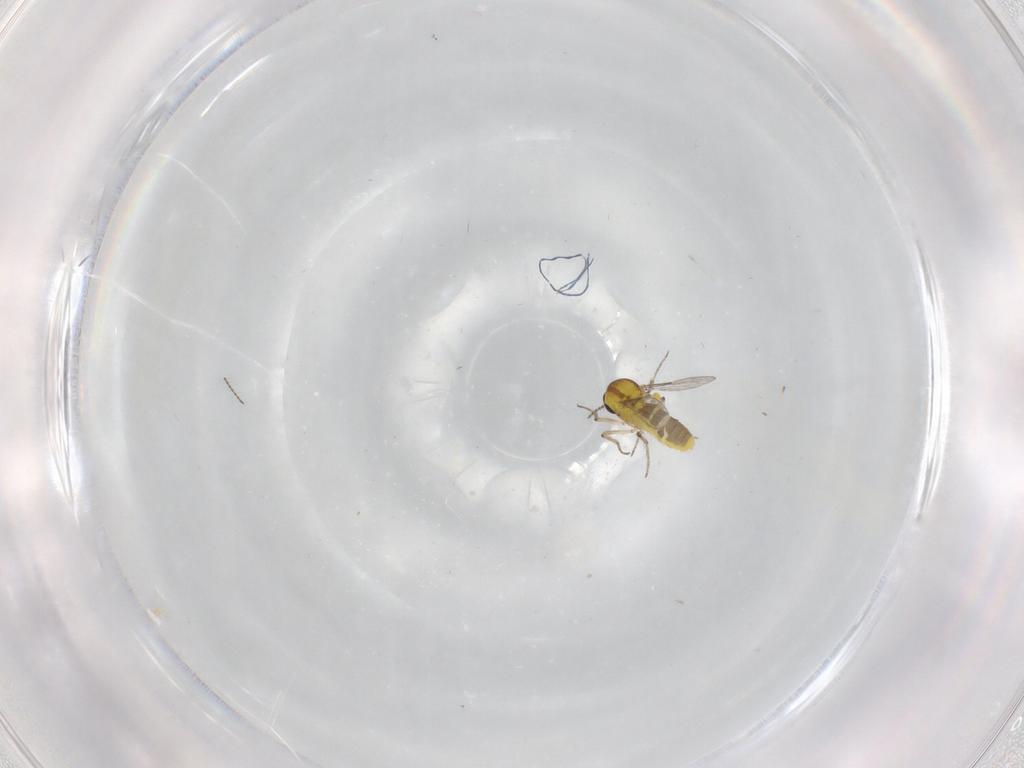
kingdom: Animalia
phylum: Arthropoda
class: Insecta
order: Diptera
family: Ceratopogonidae
